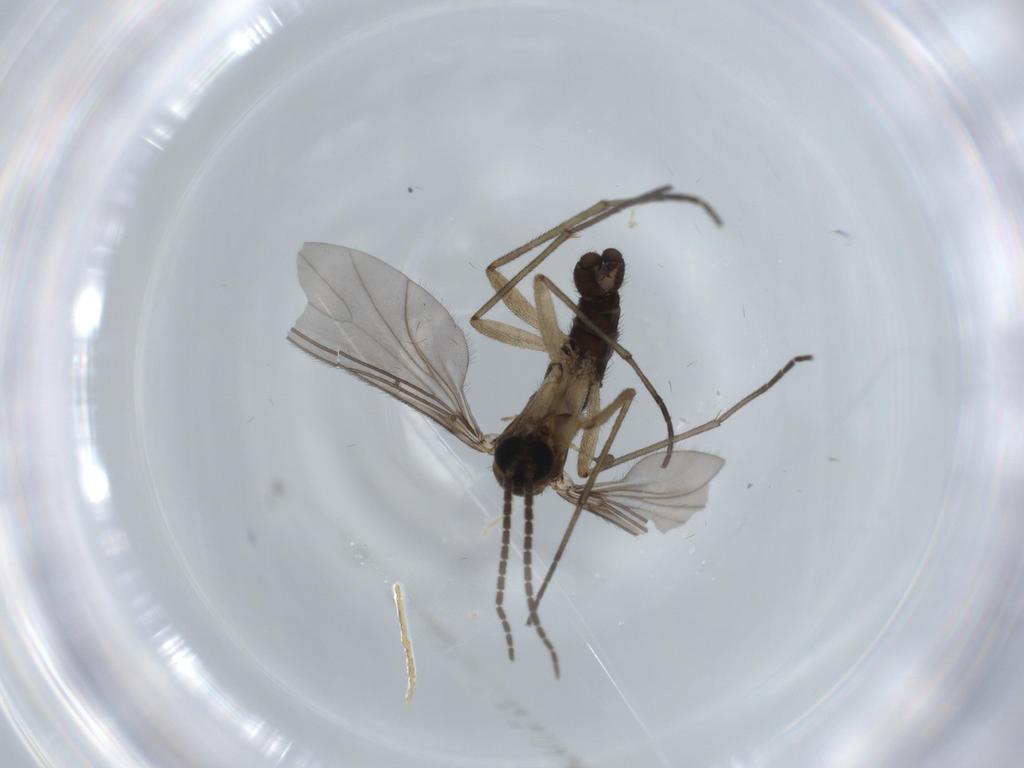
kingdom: Animalia
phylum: Arthropoda
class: Insecta
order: Diptera
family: Sciaridae
